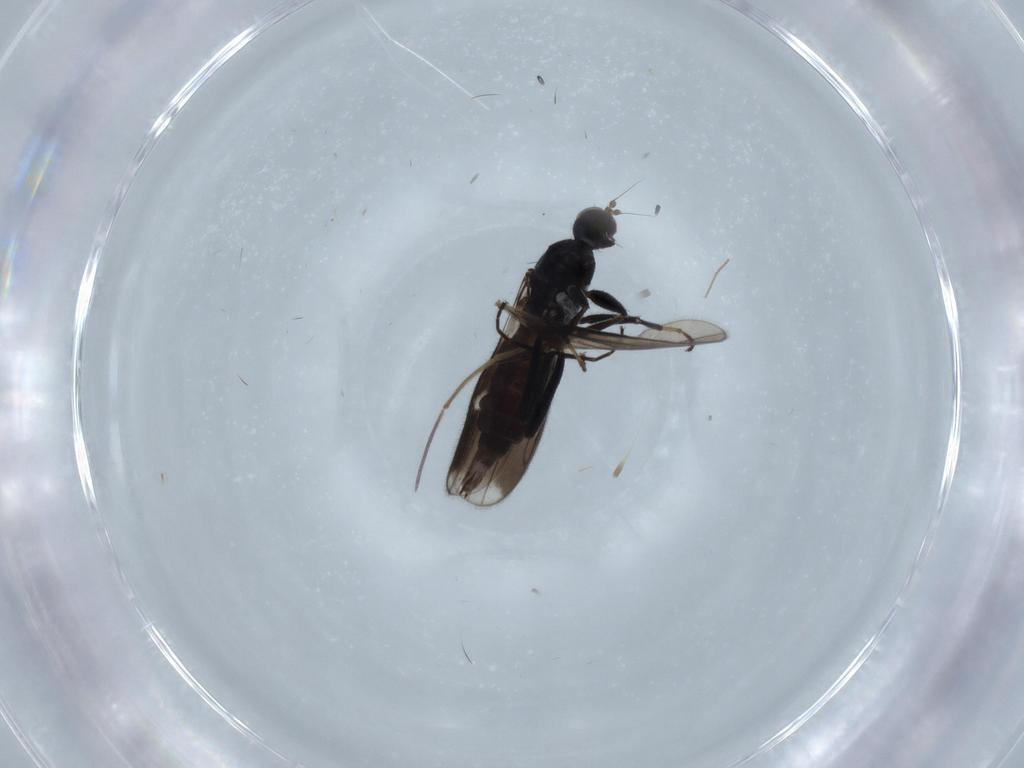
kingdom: Animalia
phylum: Arthropoda
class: Insecta
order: Diptera
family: Hybotidae
